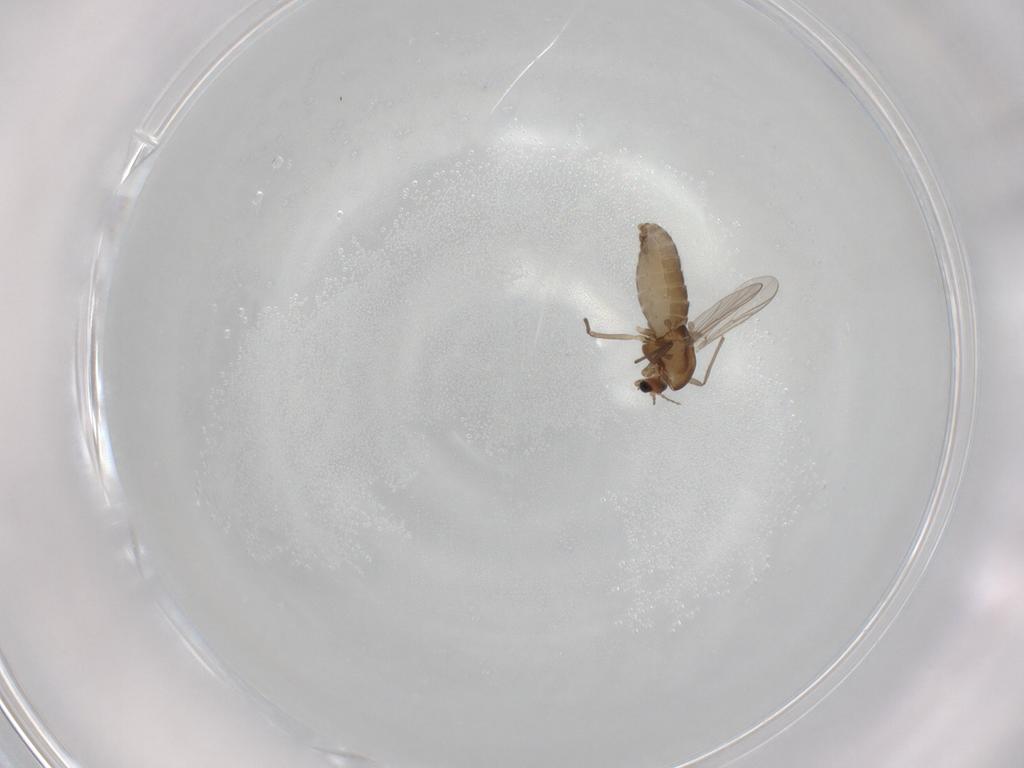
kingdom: Animalia
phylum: Arthropoda
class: Insecta
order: Diptera
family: Chironomidae
